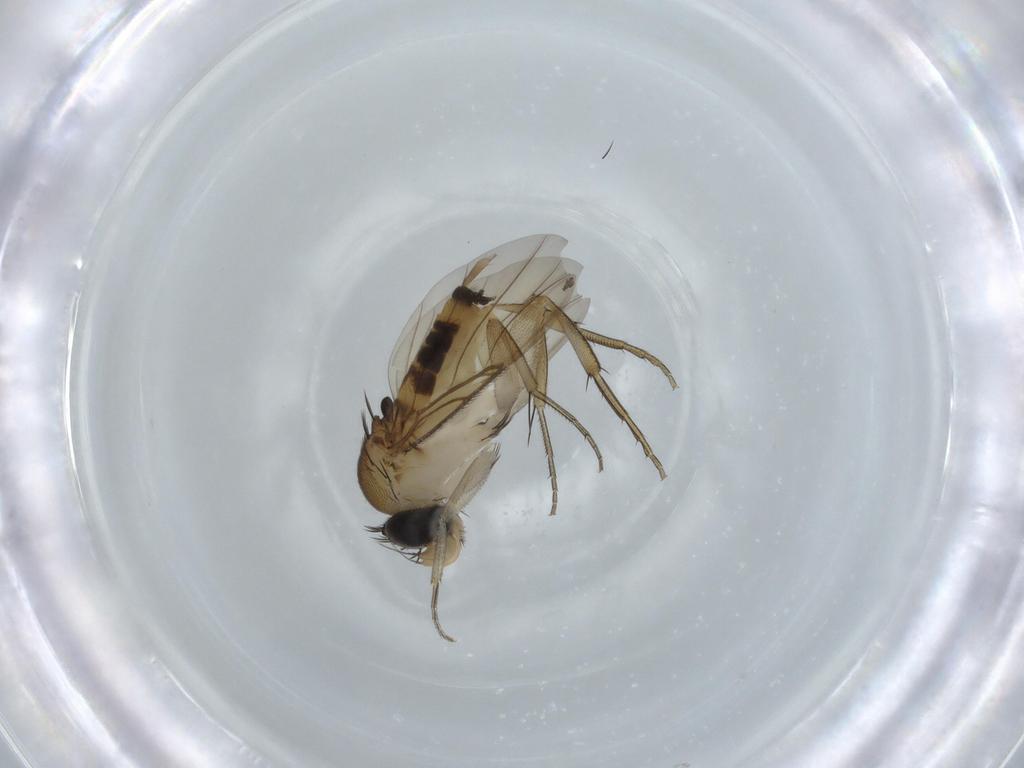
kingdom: Animalia
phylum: Arthropoda
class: Insecta
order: Diptera
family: Phoridae
